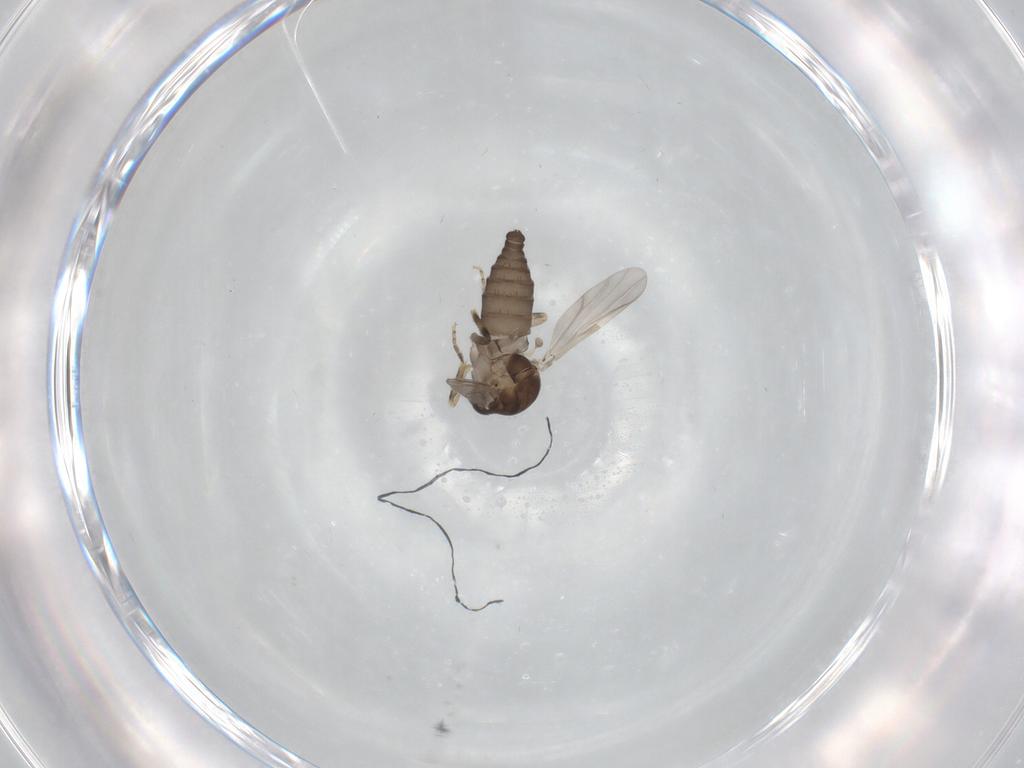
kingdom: Animalia
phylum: Arthropoda
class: Insecta
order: Diptera
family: Ceratopogonidae
